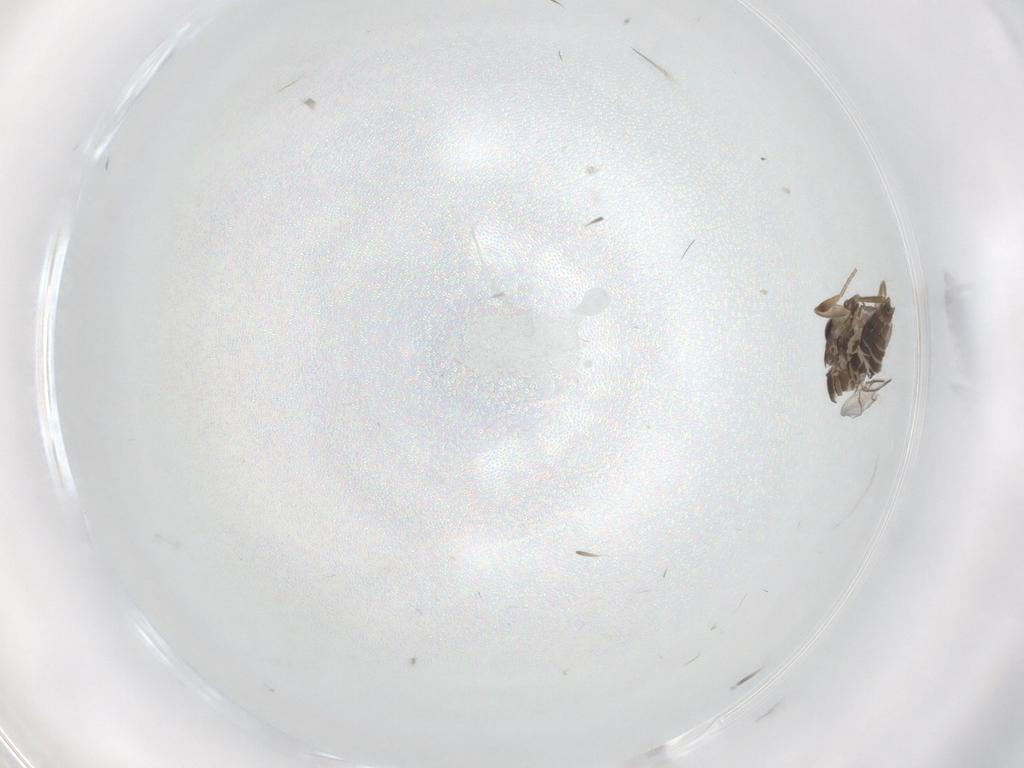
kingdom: Animalia
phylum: Arthropoda
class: Insecta
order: Diptera
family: Phoridae
